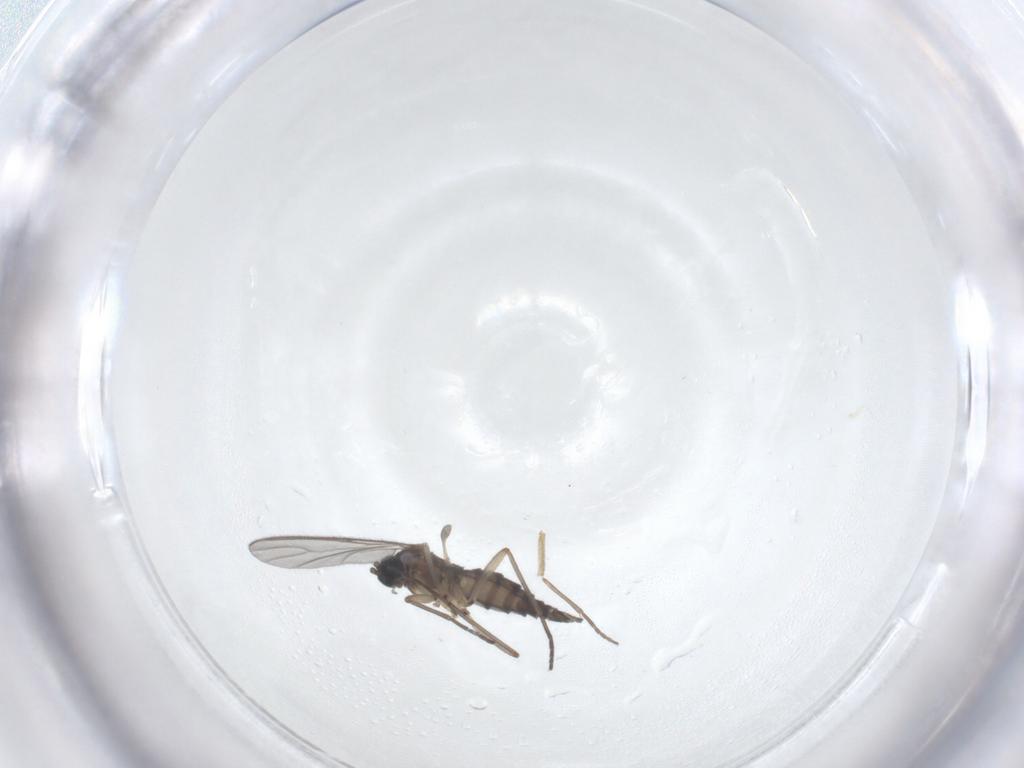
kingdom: Animalia
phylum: Arthropoda
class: Insecta
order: Diptera
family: Sciaridae
